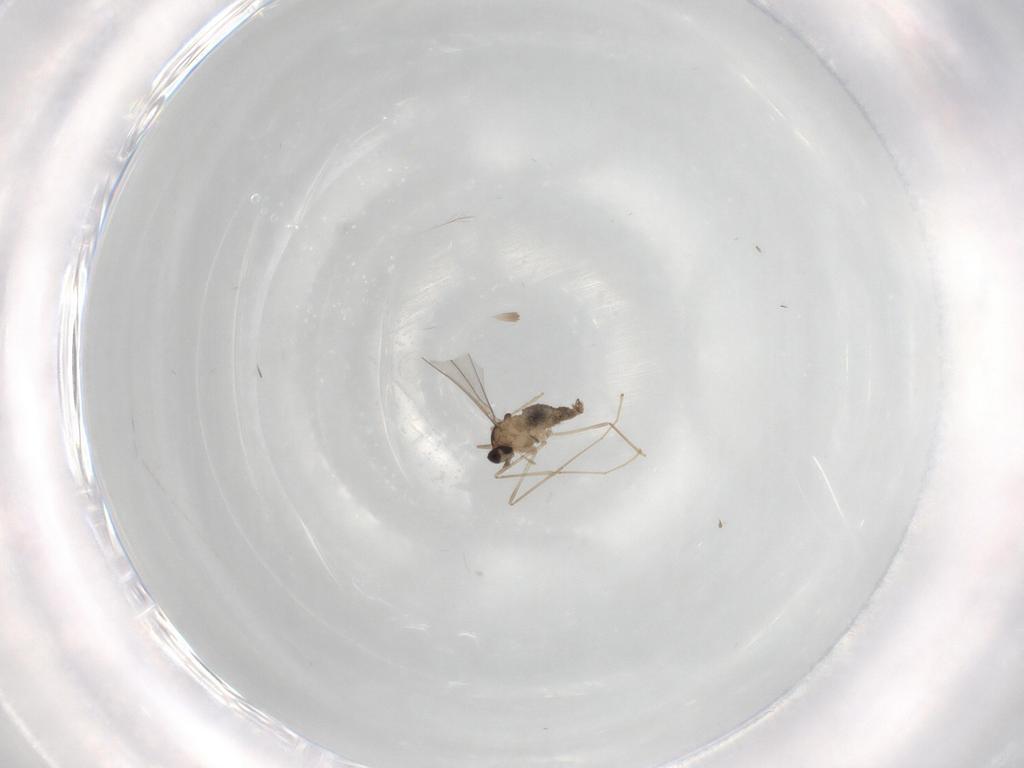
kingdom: Animalia
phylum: Arthropoda
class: Insecta
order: Diptera
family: Cecidomyiidae
